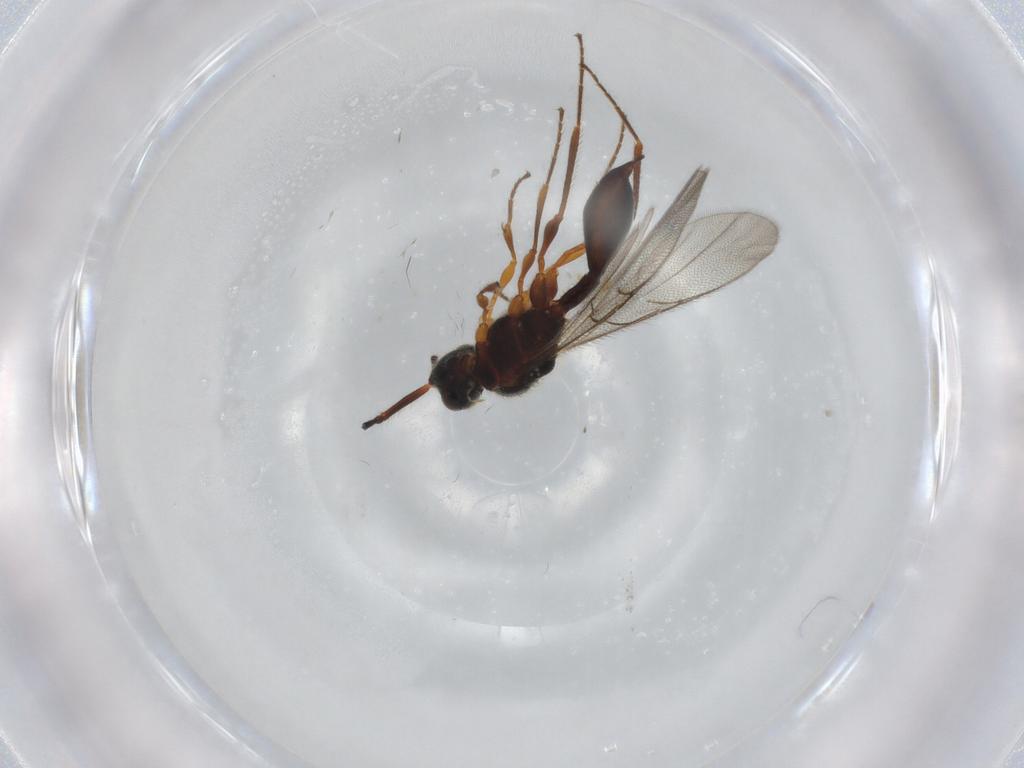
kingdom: Animalia
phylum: Arthropoda
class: Insecta
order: Hymenoptera
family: Diapriidae
